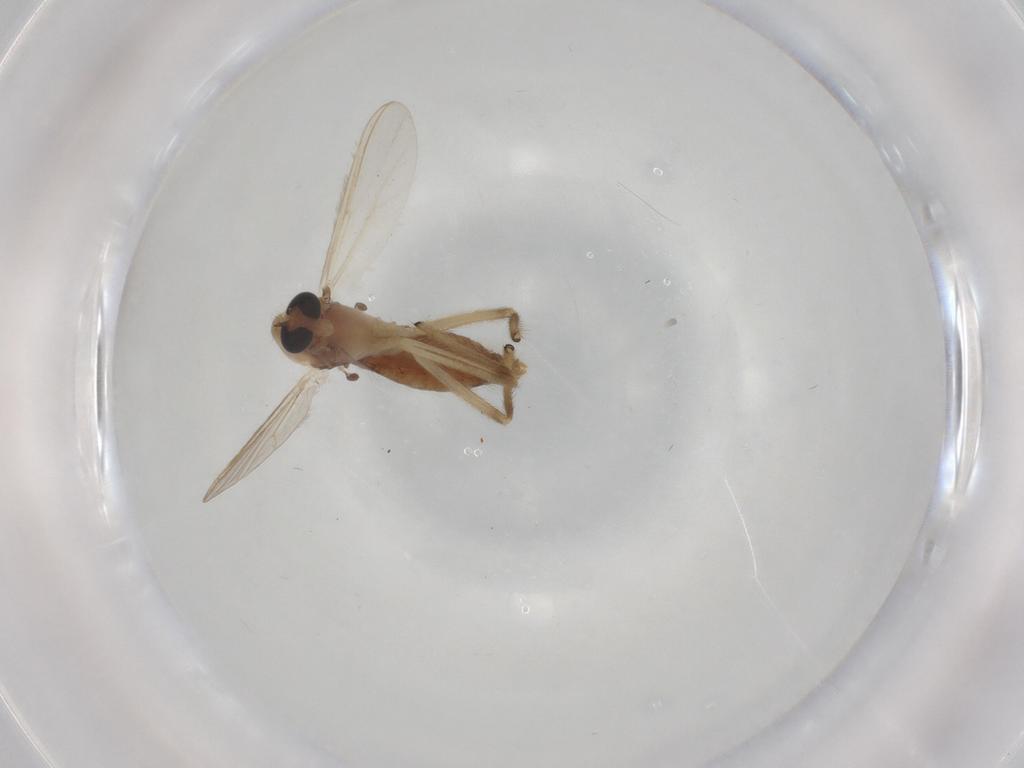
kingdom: Animalia
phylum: Arthropoda
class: Insecta
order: Diptera
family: Chironomidae
